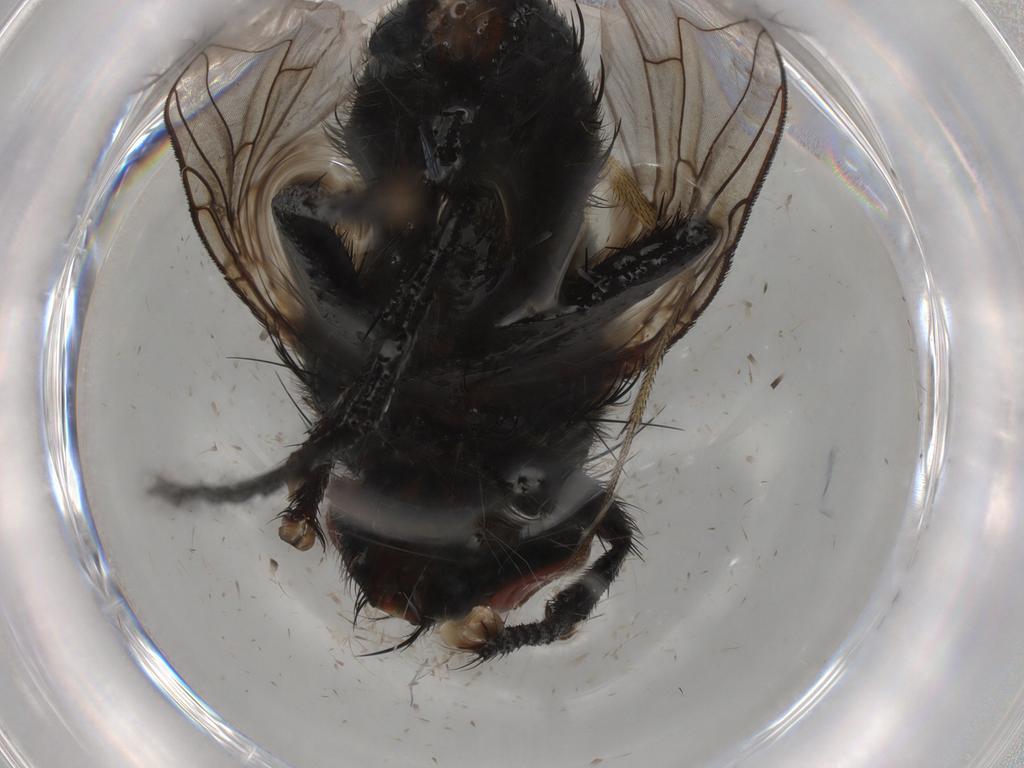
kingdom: Animalia
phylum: Arthropoda
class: Insecta
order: Diptera
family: Sarcophagidae
